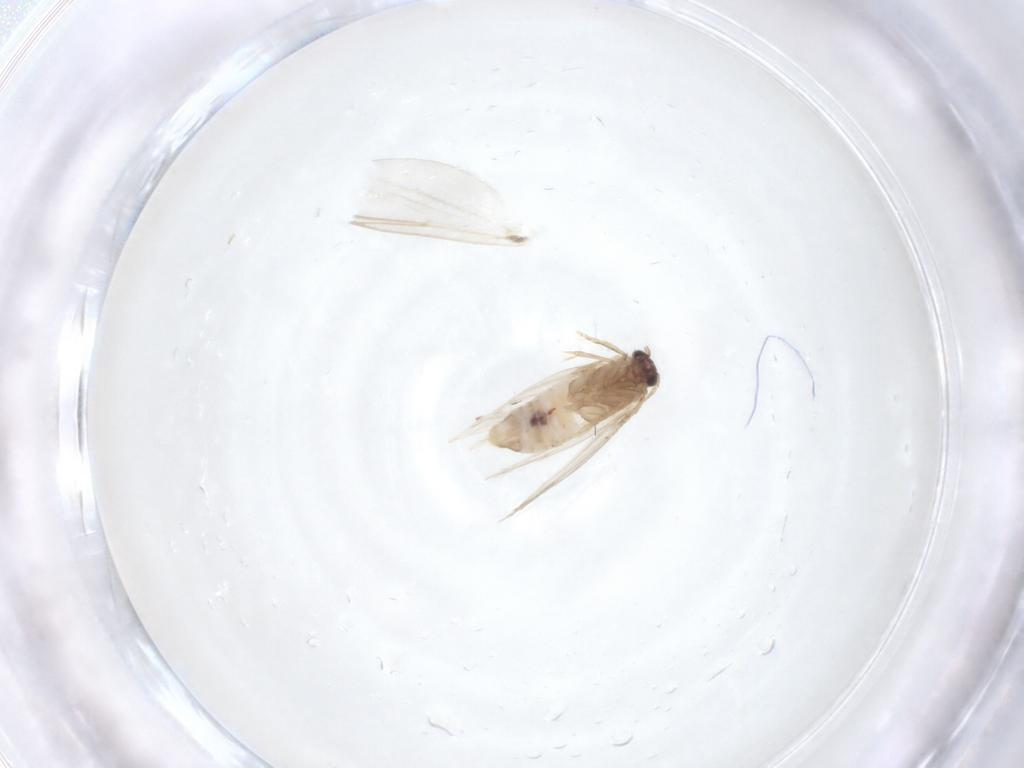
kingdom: Animalia
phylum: Arthropoda
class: Insecta
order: Lepidoptera
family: Nepticulidae
